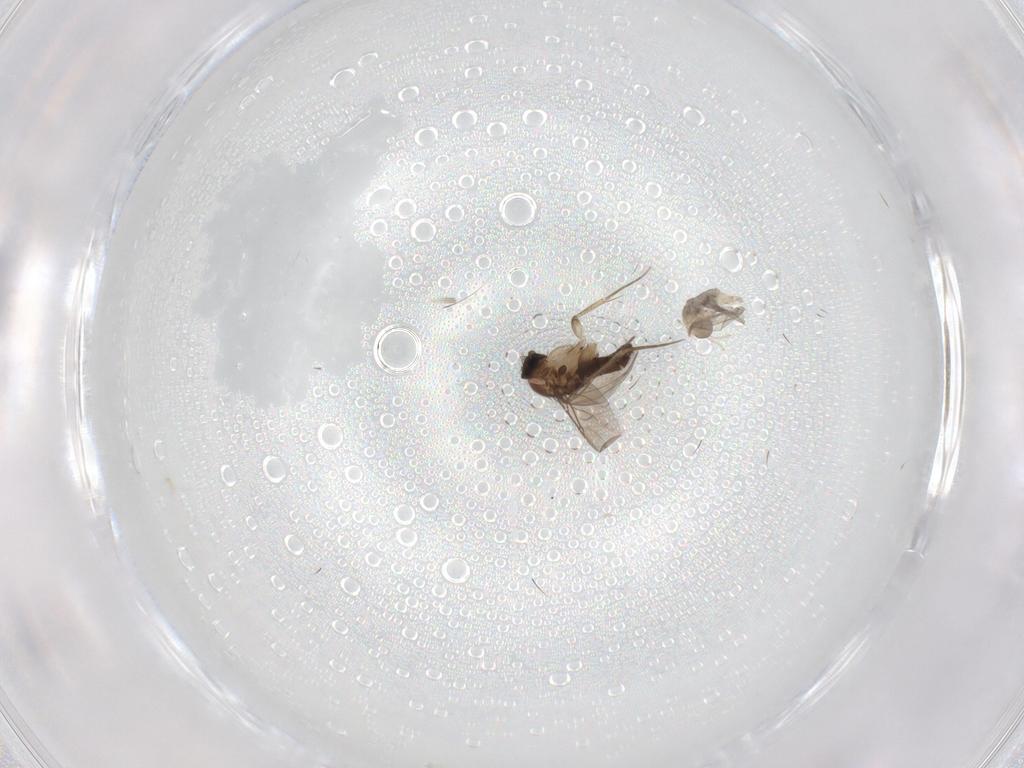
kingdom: Animalia
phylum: Arthropoda
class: Insecta
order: Diptera
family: Phoridae
